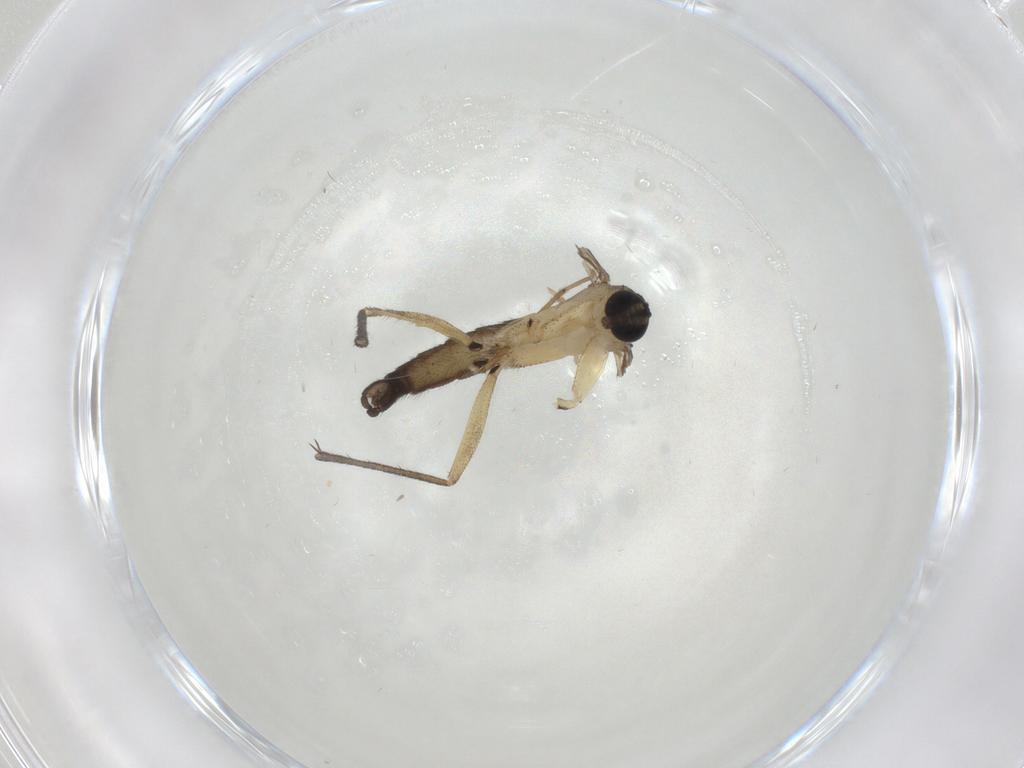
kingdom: Animalia
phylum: Arthropoda
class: Insecta
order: Diptera
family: Sciaridae
